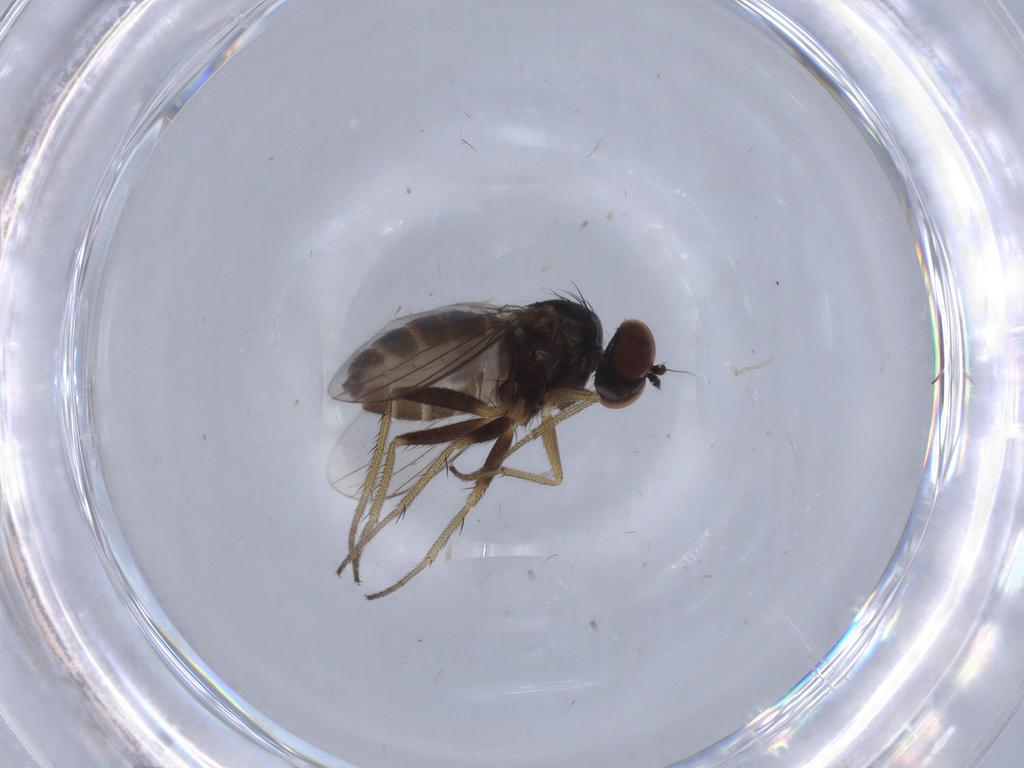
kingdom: Animalia
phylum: Arthropoda
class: Insecta
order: Diptera
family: Dolichopodidae
